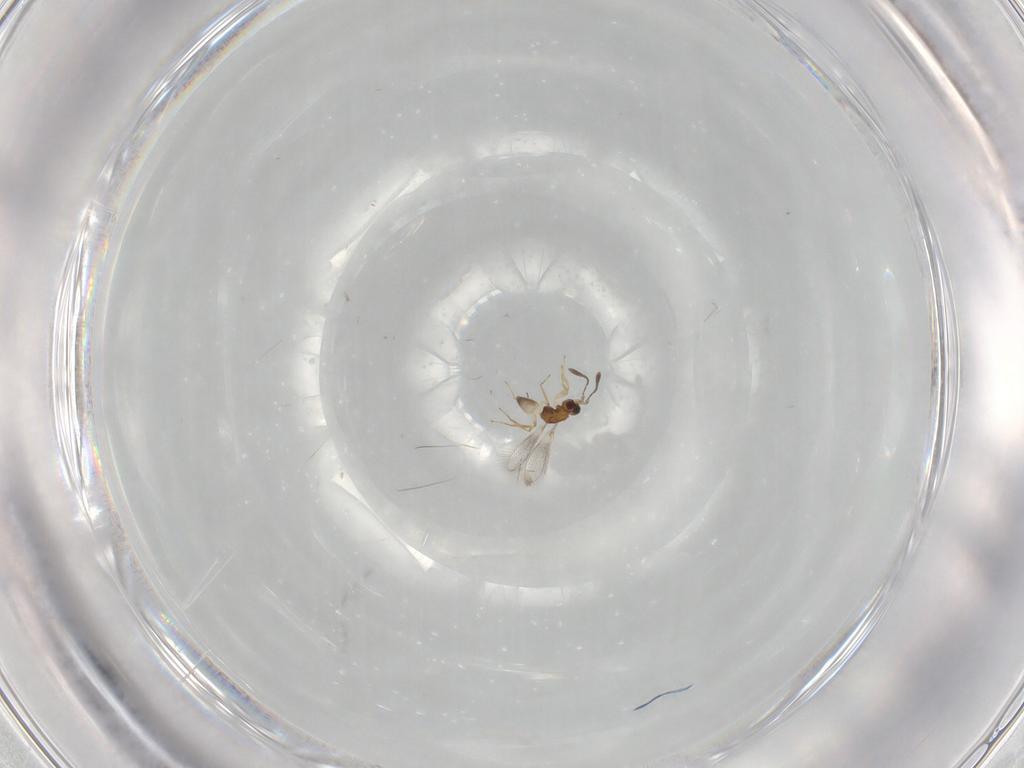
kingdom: Animalia
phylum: Arthropoda
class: Insecta
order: Hymenoptera
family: Mymaridae
